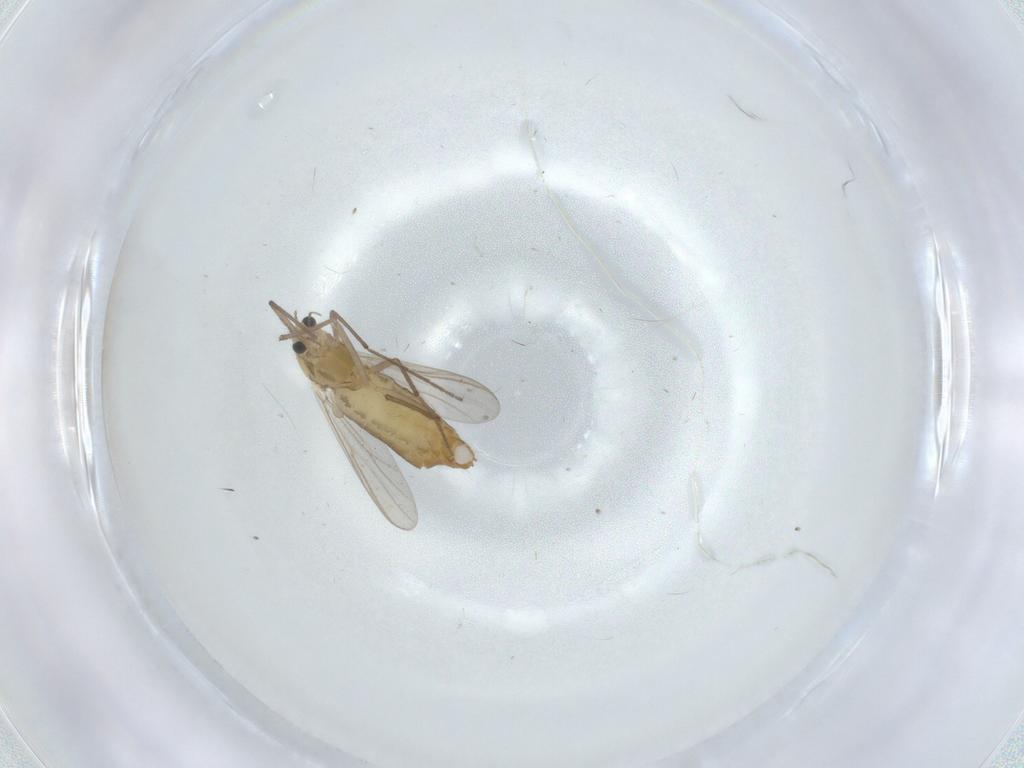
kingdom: Animalia
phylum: Arthropoda
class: Insecta
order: Diptera
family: Chironomidae
